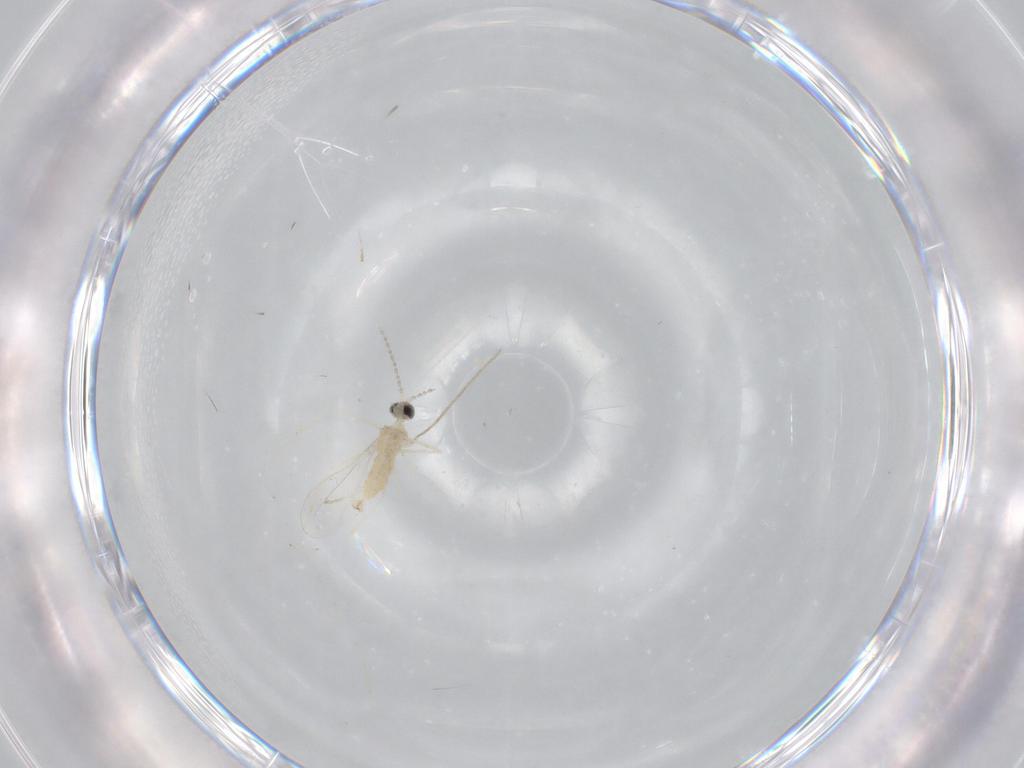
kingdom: Animalia
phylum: Arthropoda
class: Insecta
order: Diptera
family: Cecidomyiidae
